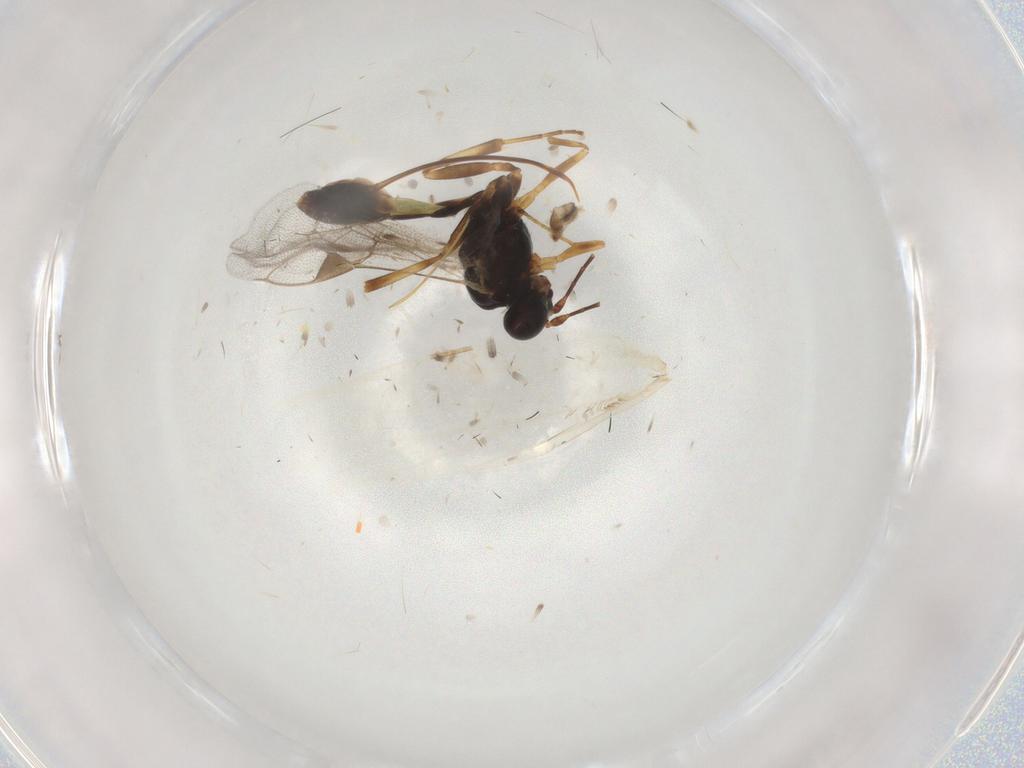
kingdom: Animalia
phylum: Arthropoda
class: Insecta
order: Hymenoptera
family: Ichneumonidae
